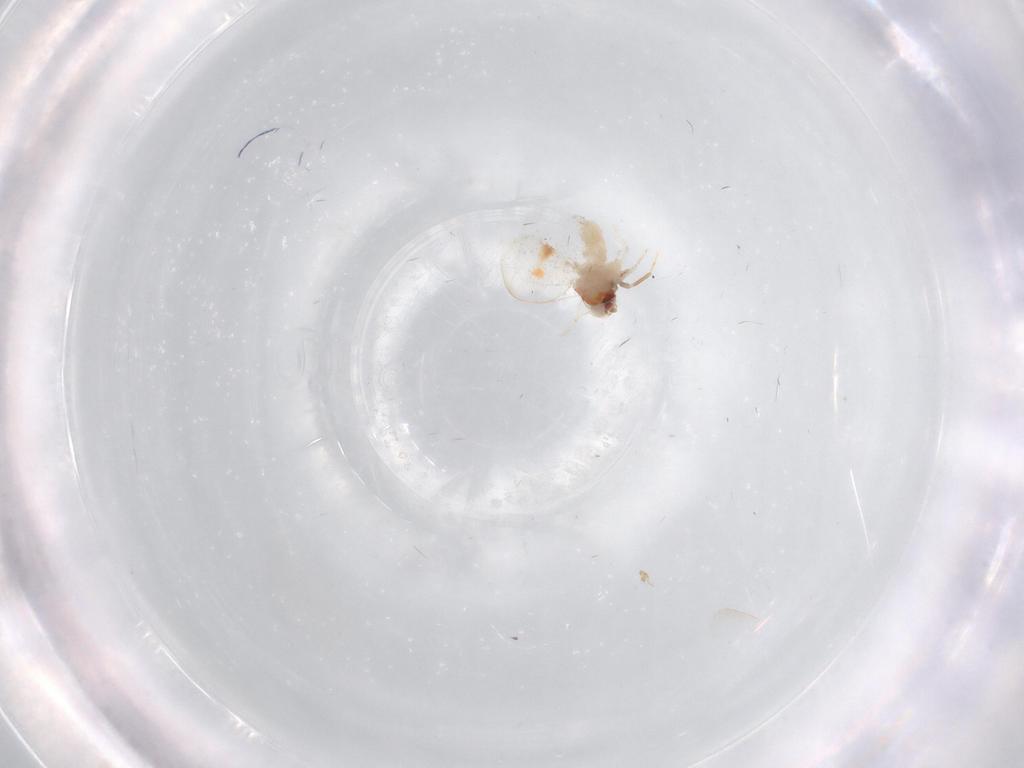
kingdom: Animalia
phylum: Arthropoda
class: Insecta
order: Hemiptera
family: Aleyrodidae
